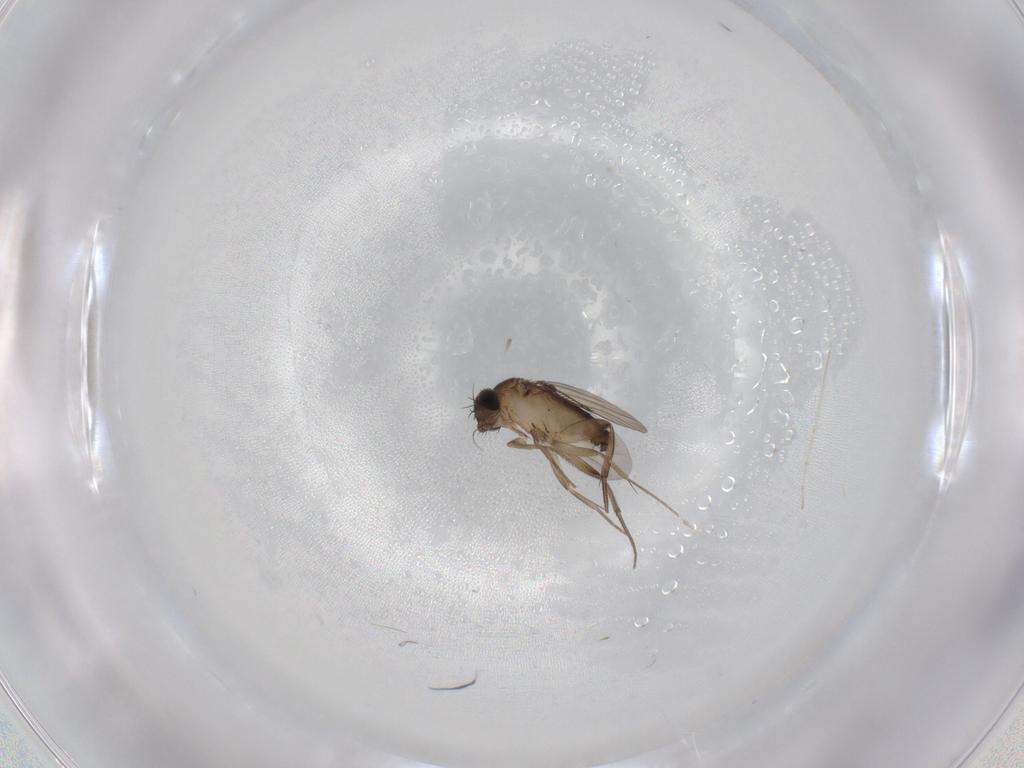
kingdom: Animalia
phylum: Arthropoda
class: Insecta
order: Diptera
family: Phoridae
